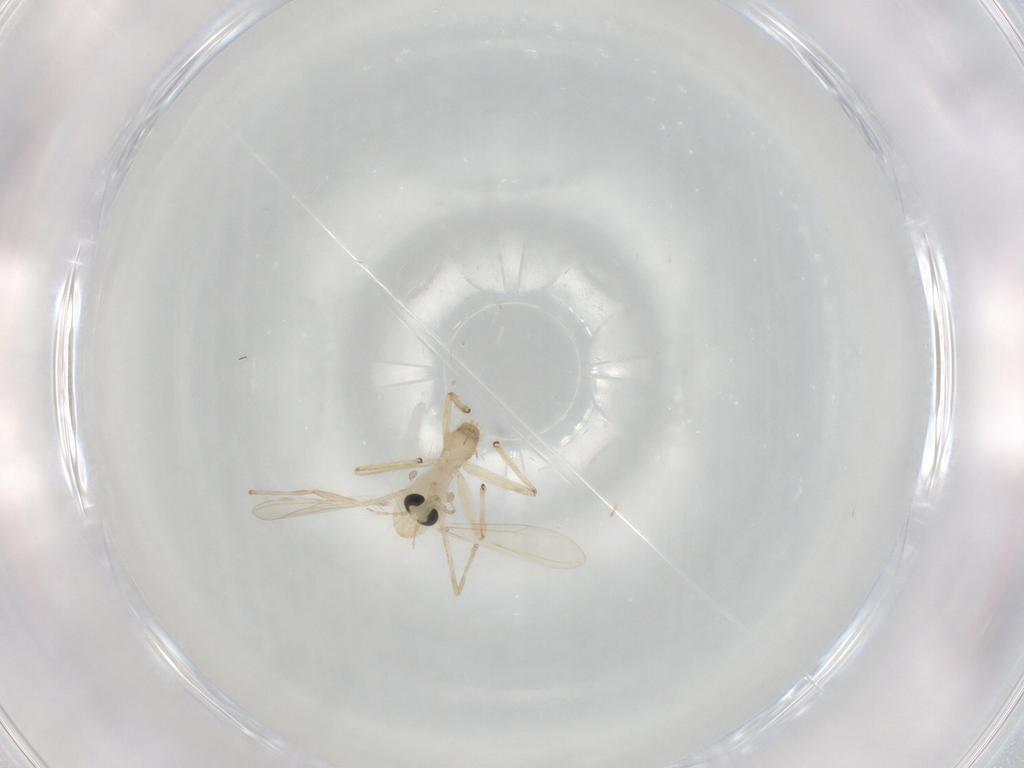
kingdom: Animalia
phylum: Arthropoda
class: Insecta
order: Diptera
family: Chironomidae
